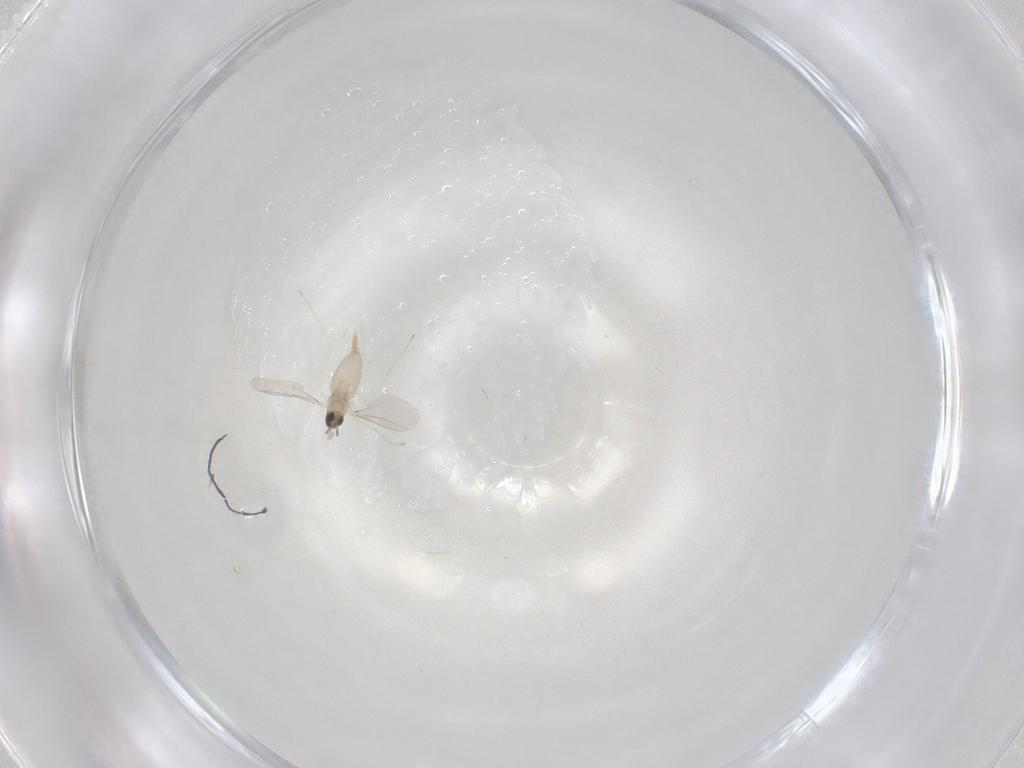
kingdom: Animalia
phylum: Arthropoda
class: Insecta
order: Diptera
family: Cecidomyiidae
